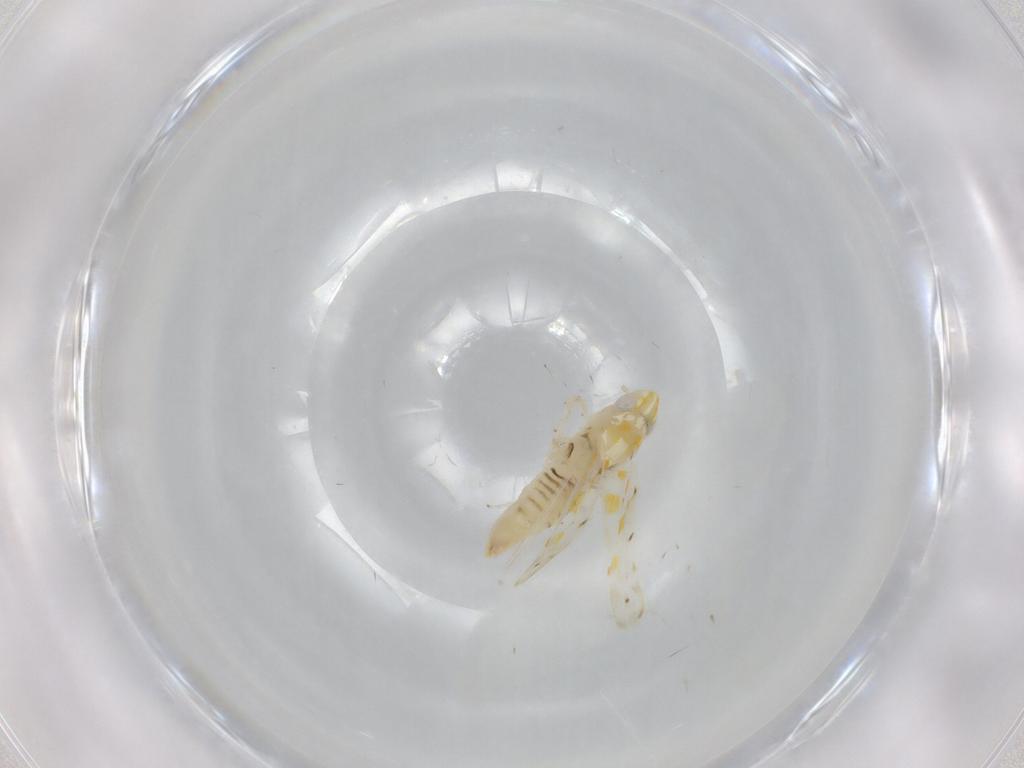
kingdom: Animalia
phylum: Arthropoda
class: Insecta
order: Hemiptera
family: Cicadellidae
